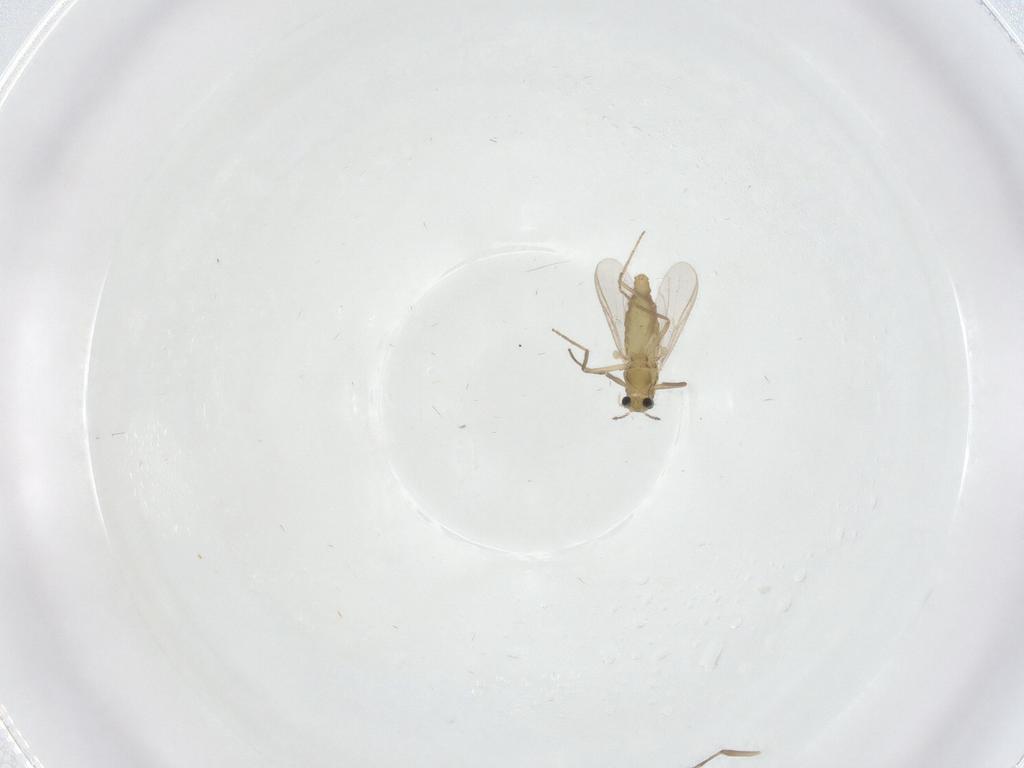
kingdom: Animalia
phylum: Arthropoda
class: Insecta
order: Diptera
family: Psychodidae
